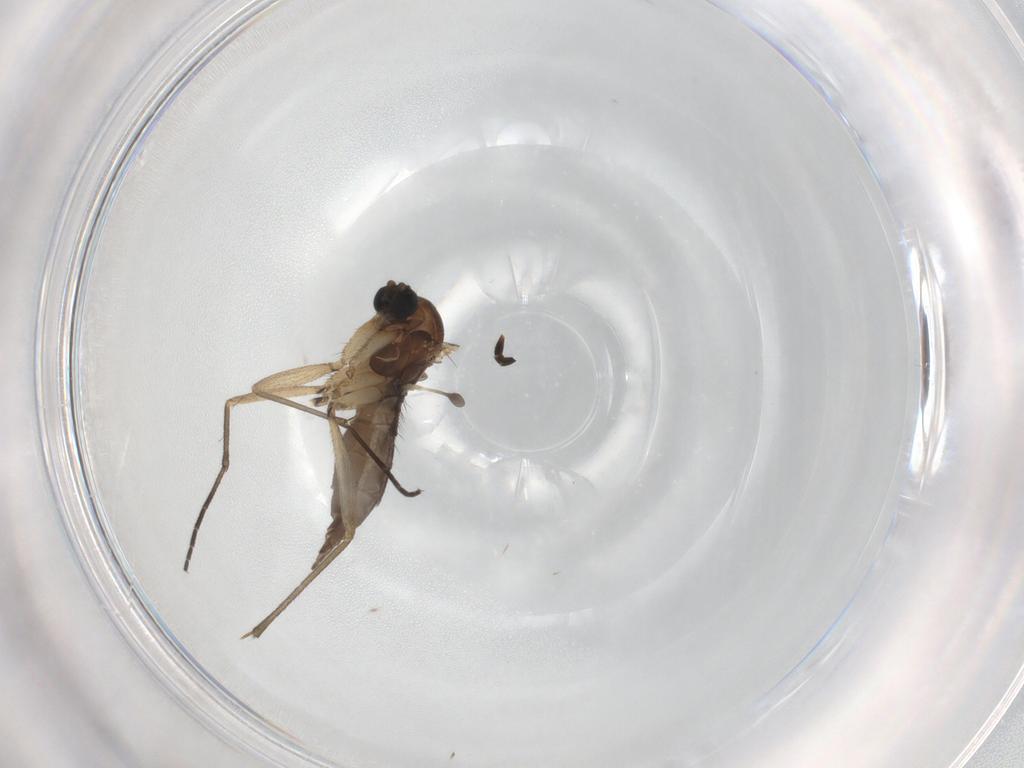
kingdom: Animalia
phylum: Arthropoda
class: Insecta
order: Diptera
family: Sciaridae
